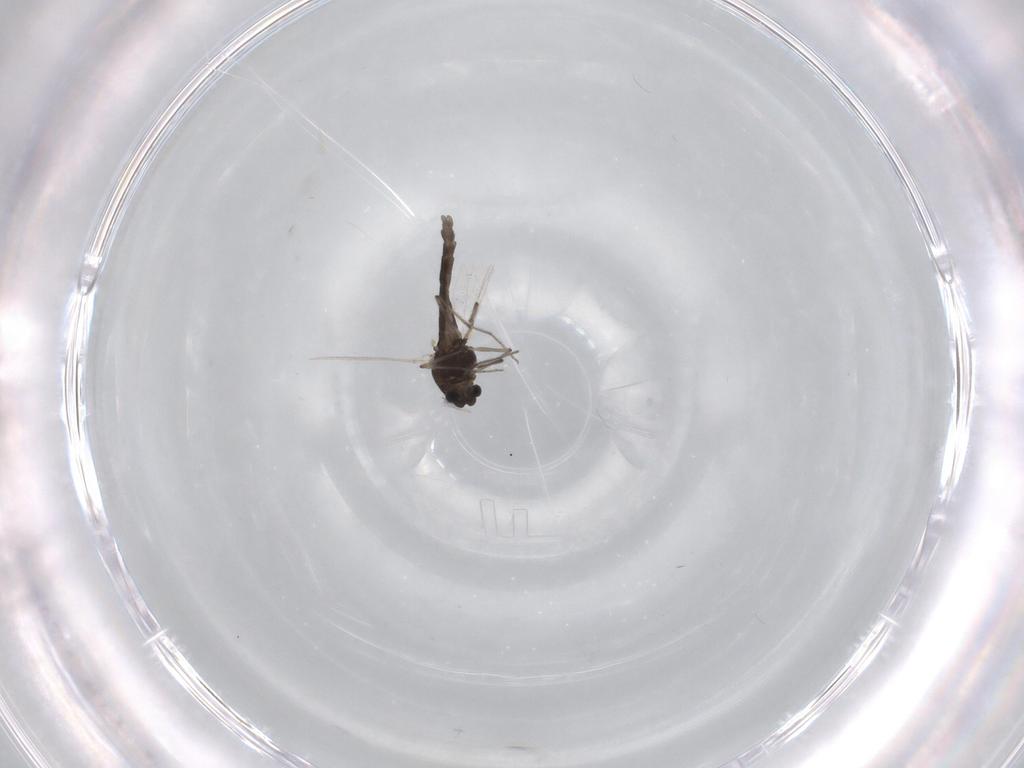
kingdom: Animalia
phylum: Arthropoda
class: Insecta
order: Diptera
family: Chironomidae
